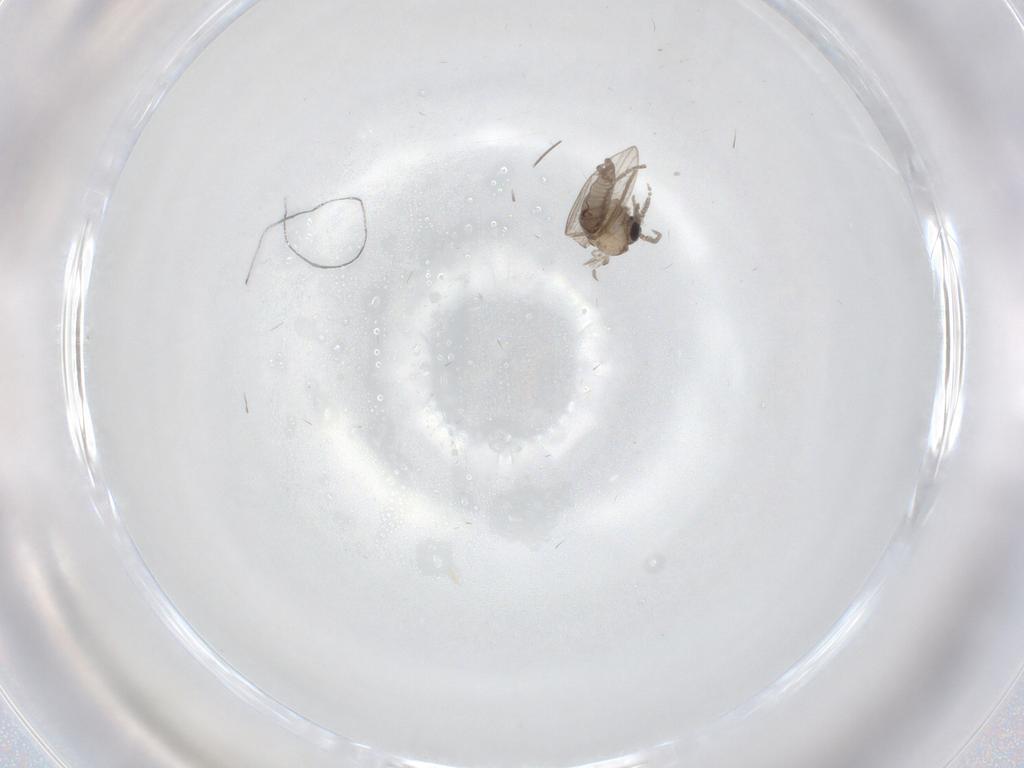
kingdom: Animalia
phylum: Arthropoda
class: Insecta
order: Diptera
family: Psychodidae
